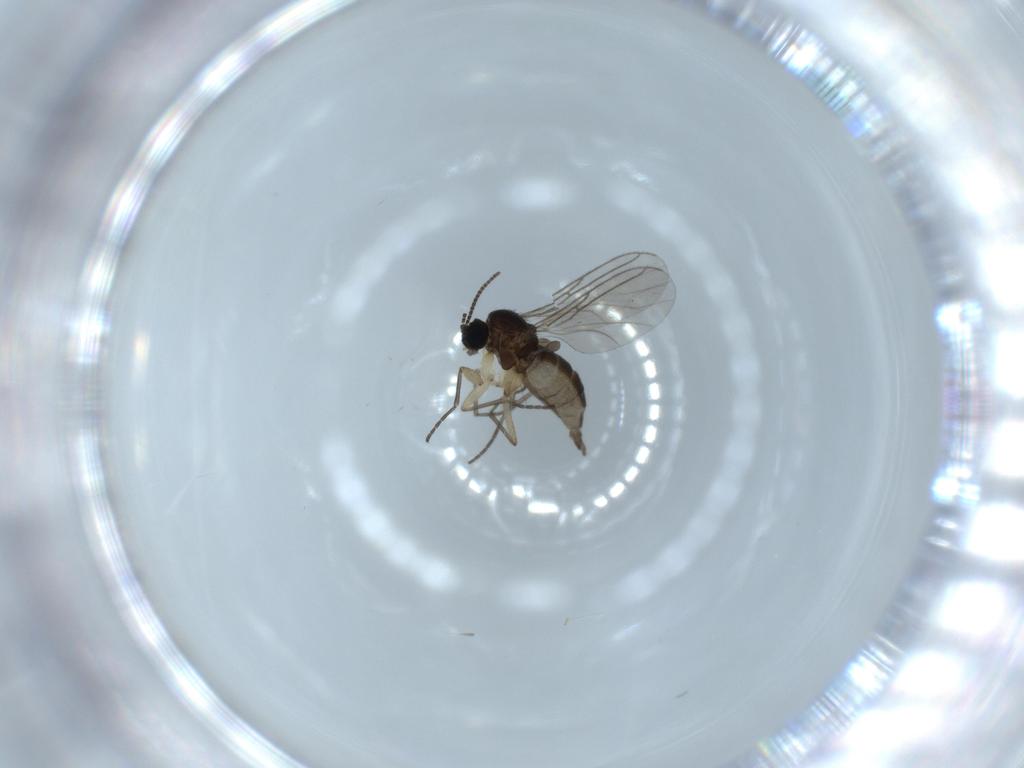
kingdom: Animalia
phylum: Arthropoda
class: Insecta
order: Diptera
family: Sciaridae
